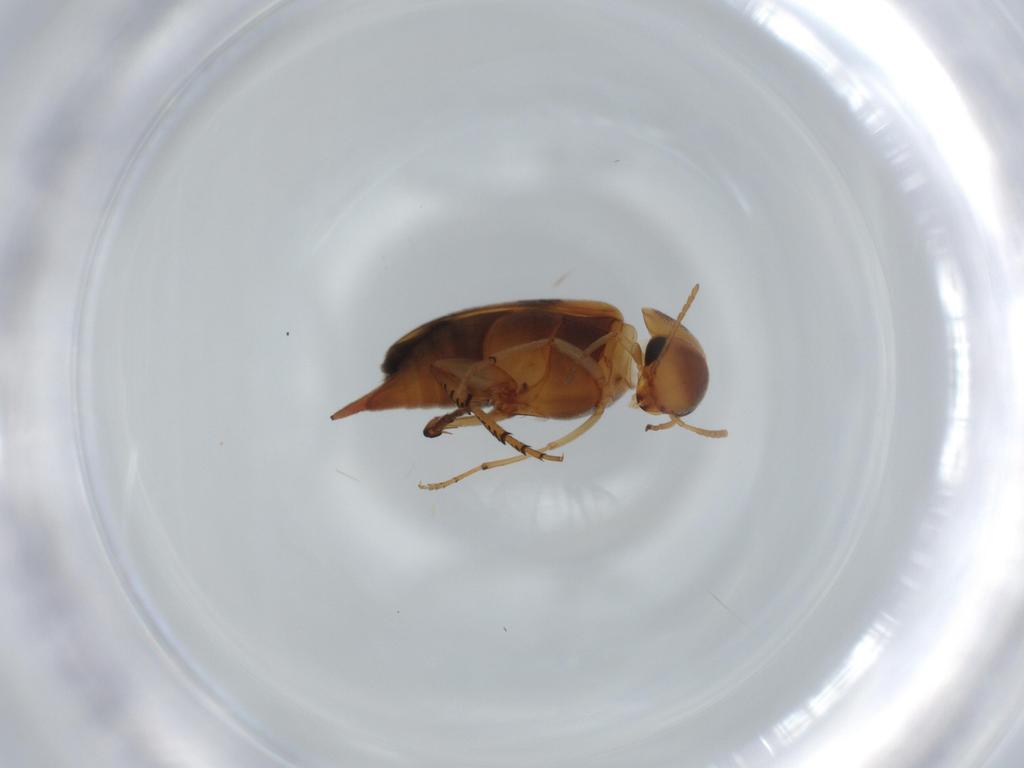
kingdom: Animalia
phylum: Arthropoda
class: Insecta
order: Coleoptera
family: Mordellidae
